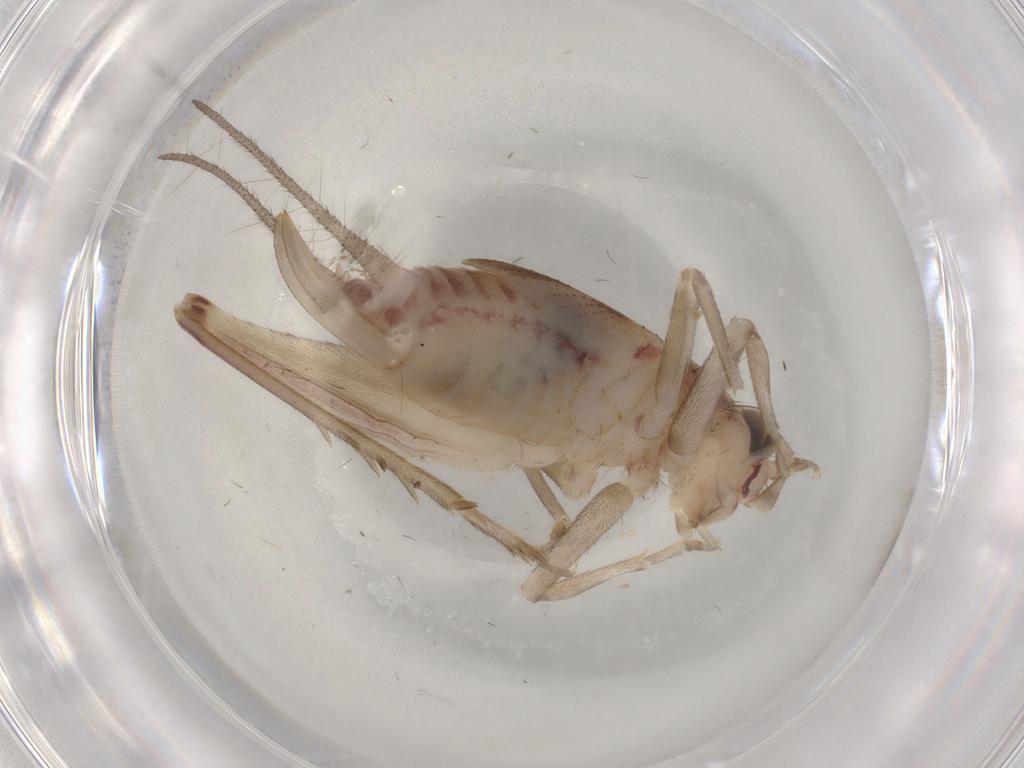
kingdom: Animalia
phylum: Arthropoda
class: Insecta
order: Orthoptera
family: Trigonidiidae
